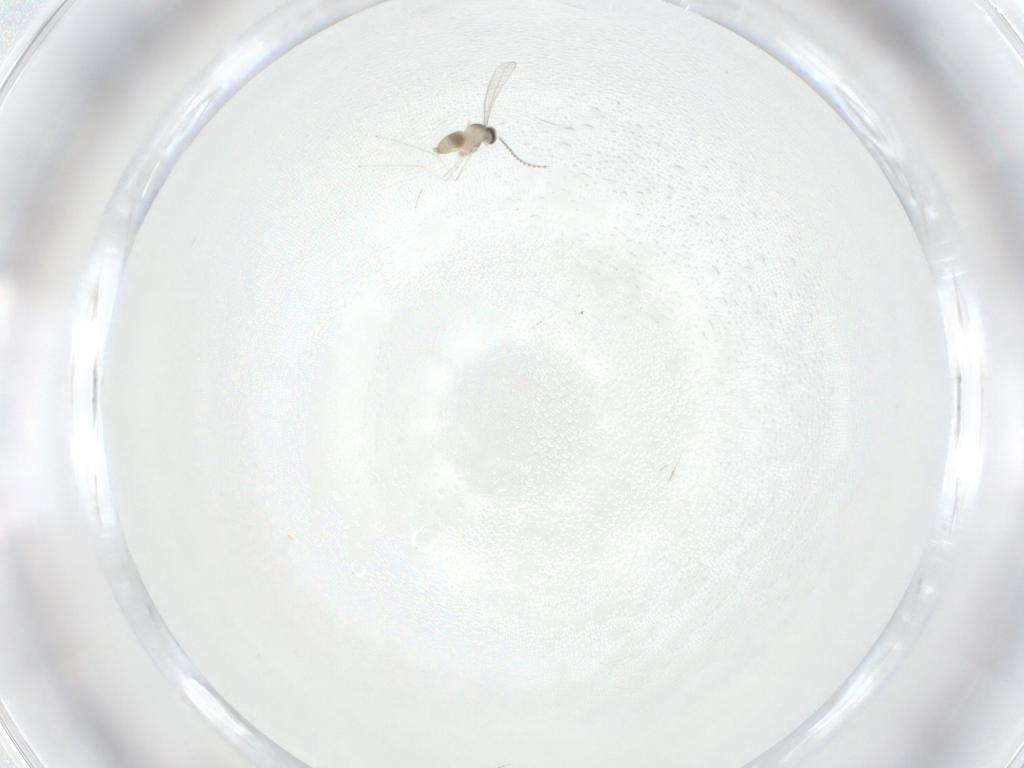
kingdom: Animalia
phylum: Arthropoda
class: Insecta
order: Diptera
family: Cecidomyiidae
